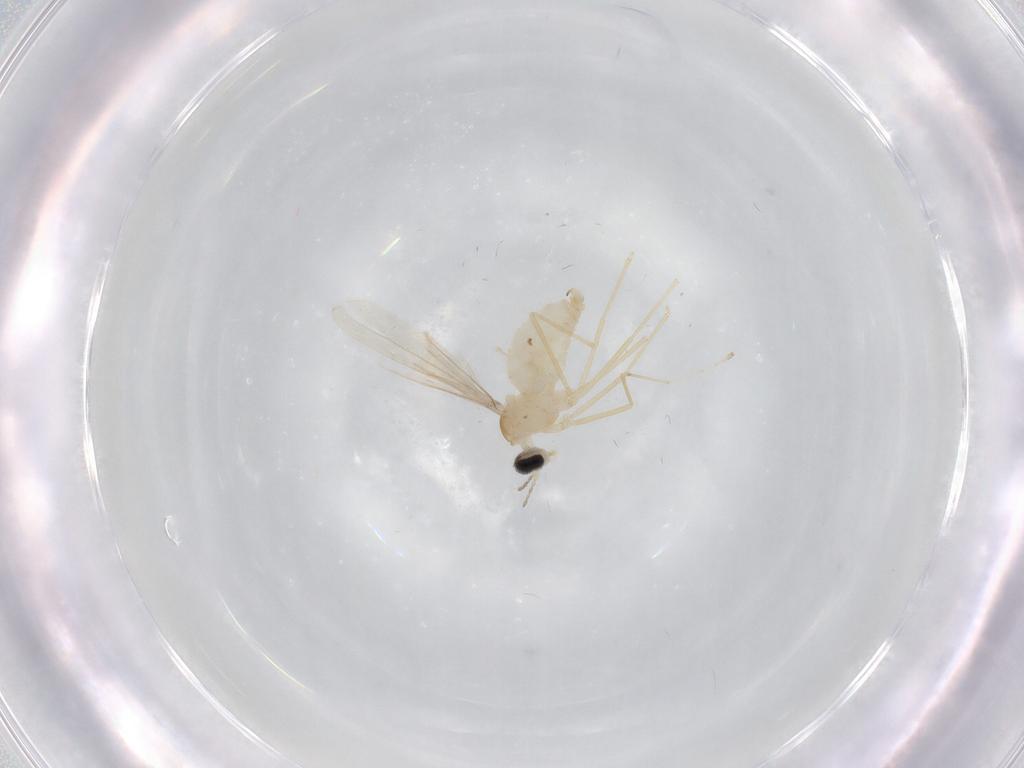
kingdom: Animalia
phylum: Arthropoda
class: Insecta
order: Diptera
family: Cecidomyiidae
